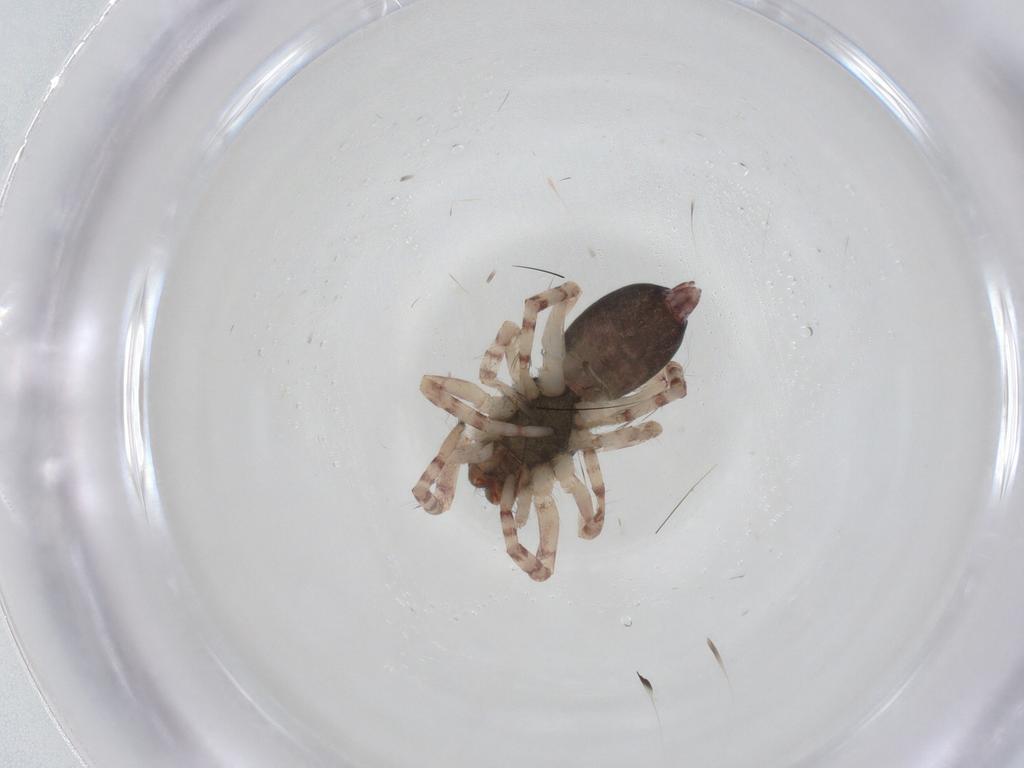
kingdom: Animalia
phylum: Arthropoda
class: Arachnida
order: Araneae
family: Anyphaenidae
